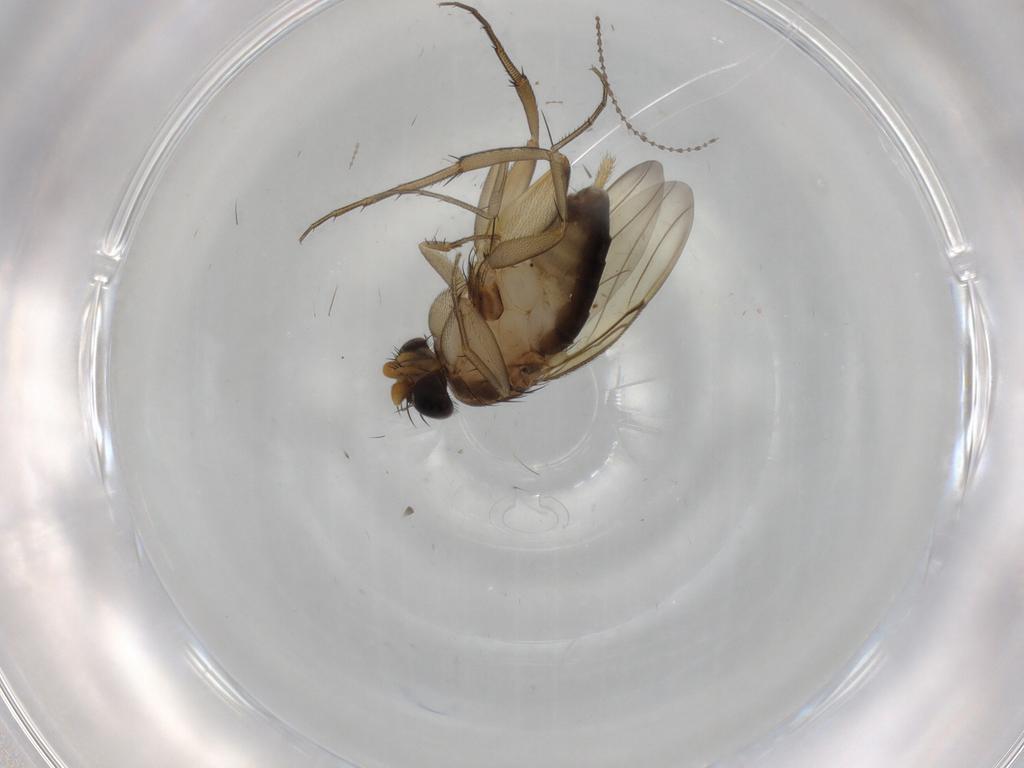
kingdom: Animalia
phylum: Arthropoda
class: Insecta
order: Diptera
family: Phoridae
